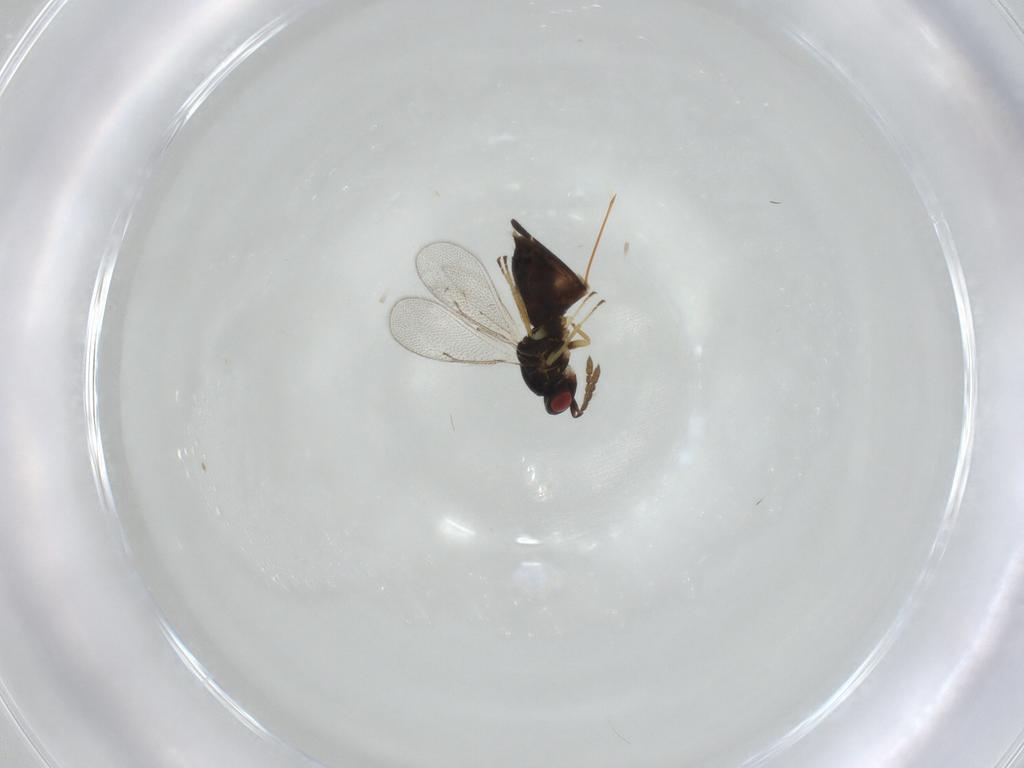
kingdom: Animalia
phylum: Arthropoda
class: Insecta
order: Hymenoptera
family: Eulophidae
